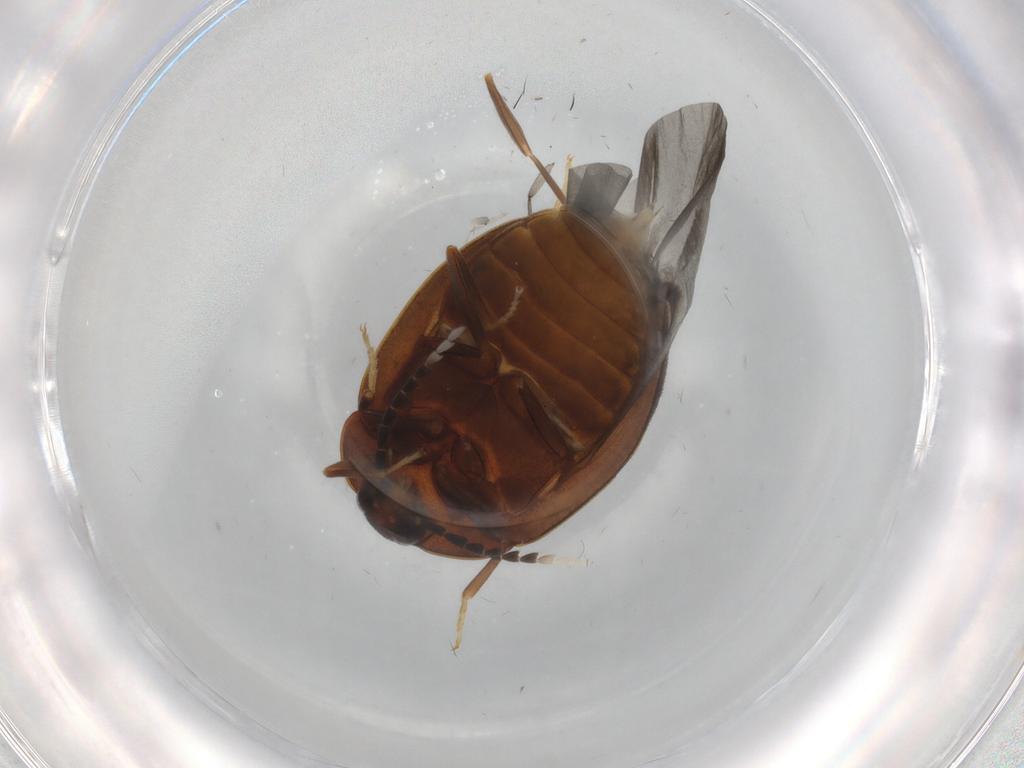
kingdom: Animalia
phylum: Arthropoda
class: Insecta
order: Coleoptera
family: Psephenidae
